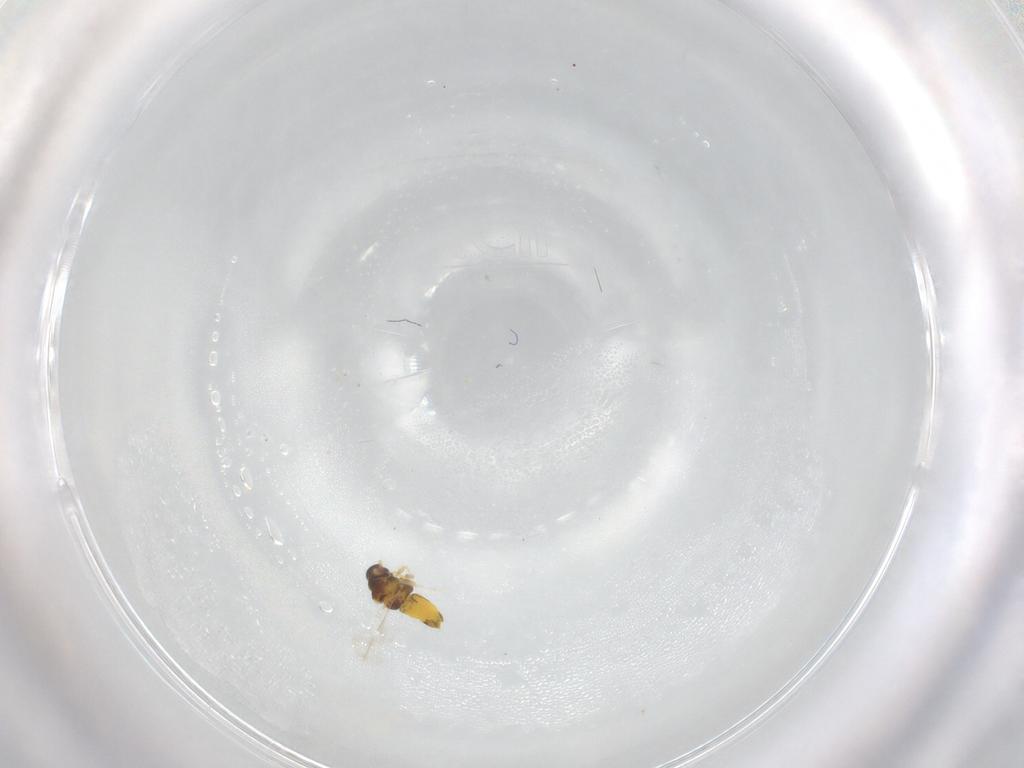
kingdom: Animalia
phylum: Arthropoda
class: Insecta
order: Hemiptera
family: Aleyrodidae
